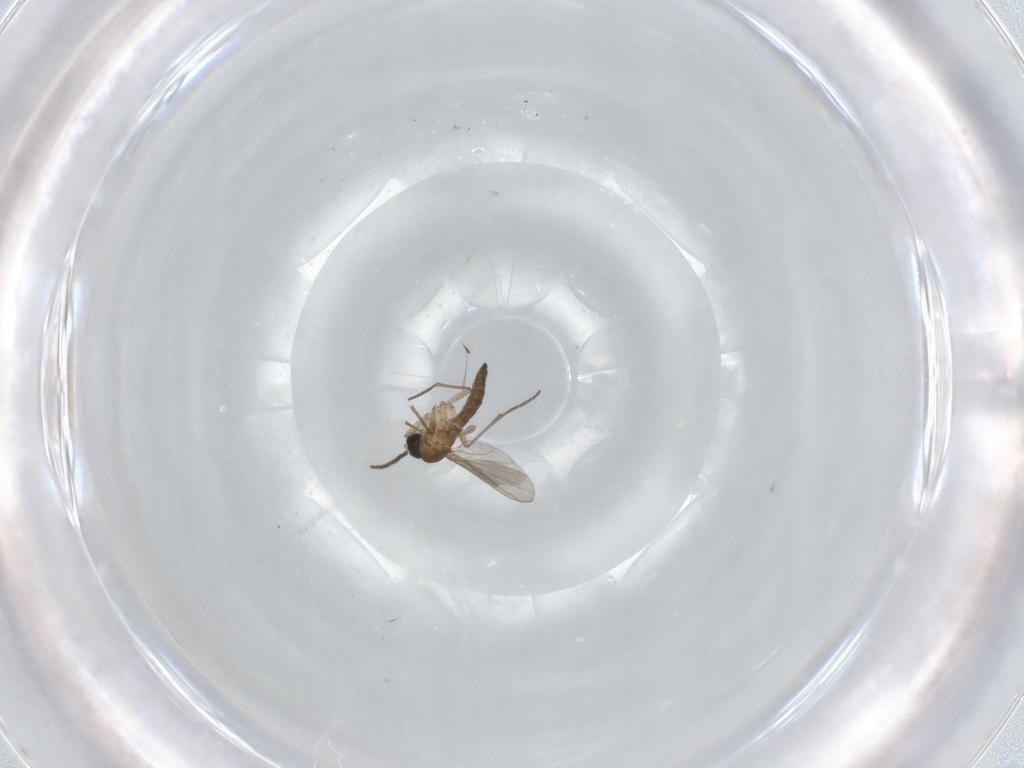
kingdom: Animalia
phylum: Arthropoda
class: Insecta
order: Diptera
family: Sciaridae
